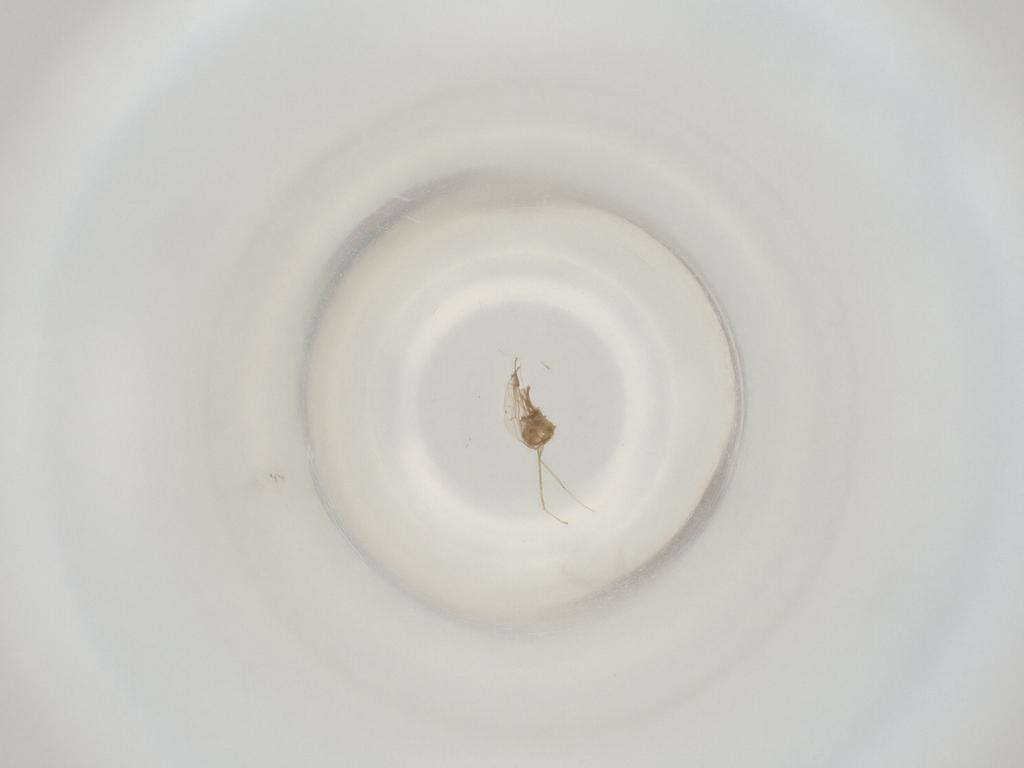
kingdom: Animalia
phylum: Arthropoda
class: Insecta
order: Diptera
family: Cecidomyiidae
